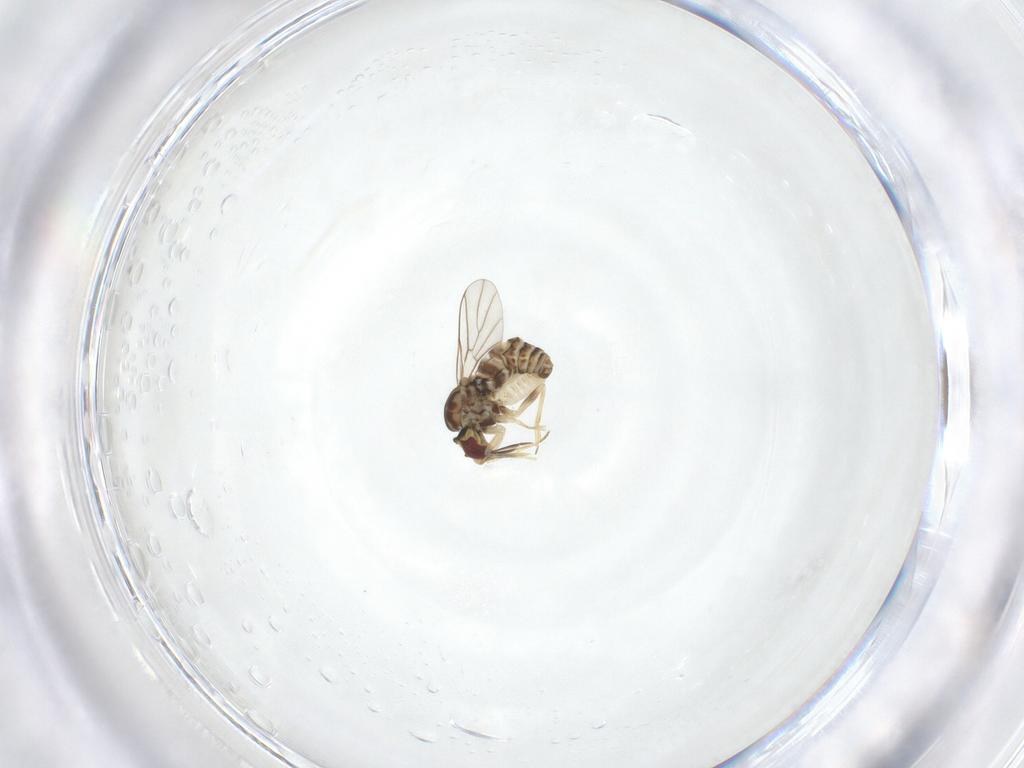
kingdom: Animalia
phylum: Arthropoda
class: Insecta
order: Diptera
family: Bombyliidae
